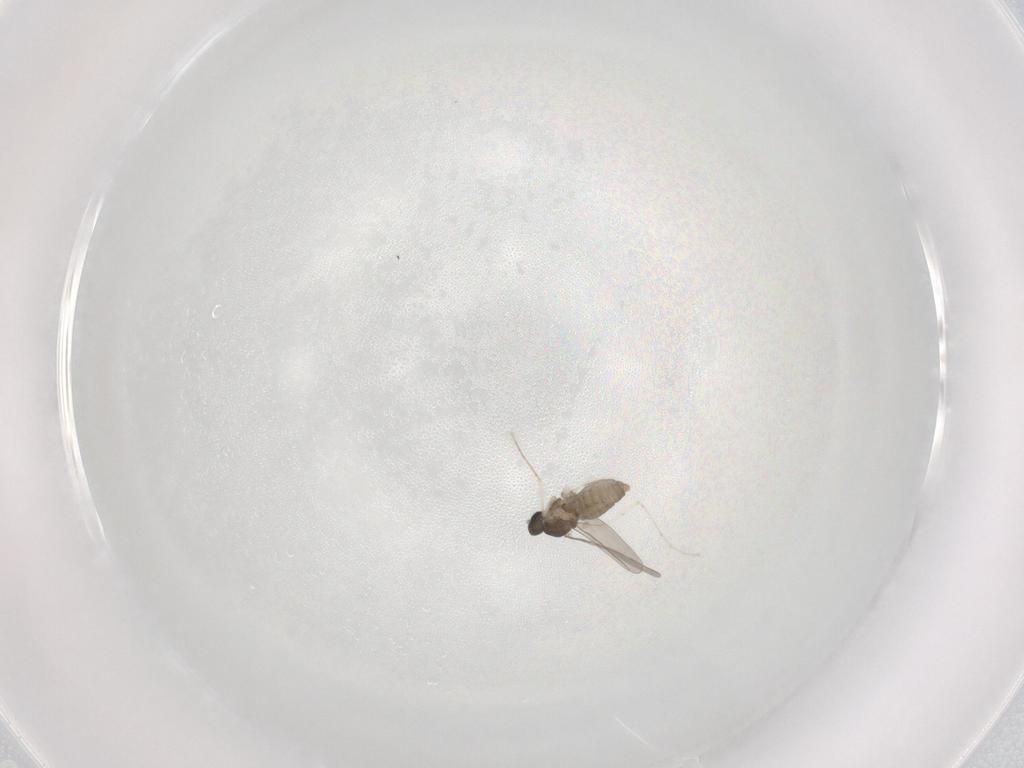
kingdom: Animalia
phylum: Arthropoda
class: Insecta
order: Diptera
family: Cecidomyiidae
